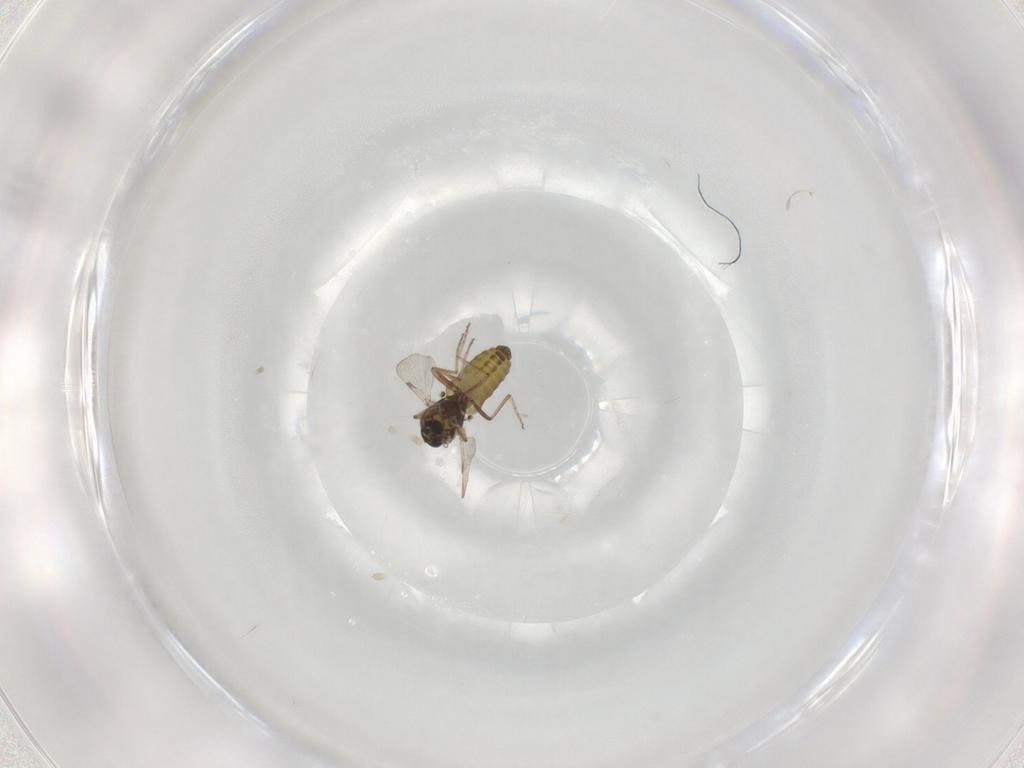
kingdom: Animalia
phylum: Arthropoda
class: Insecta
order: Diptera
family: Ceratopogonidae
